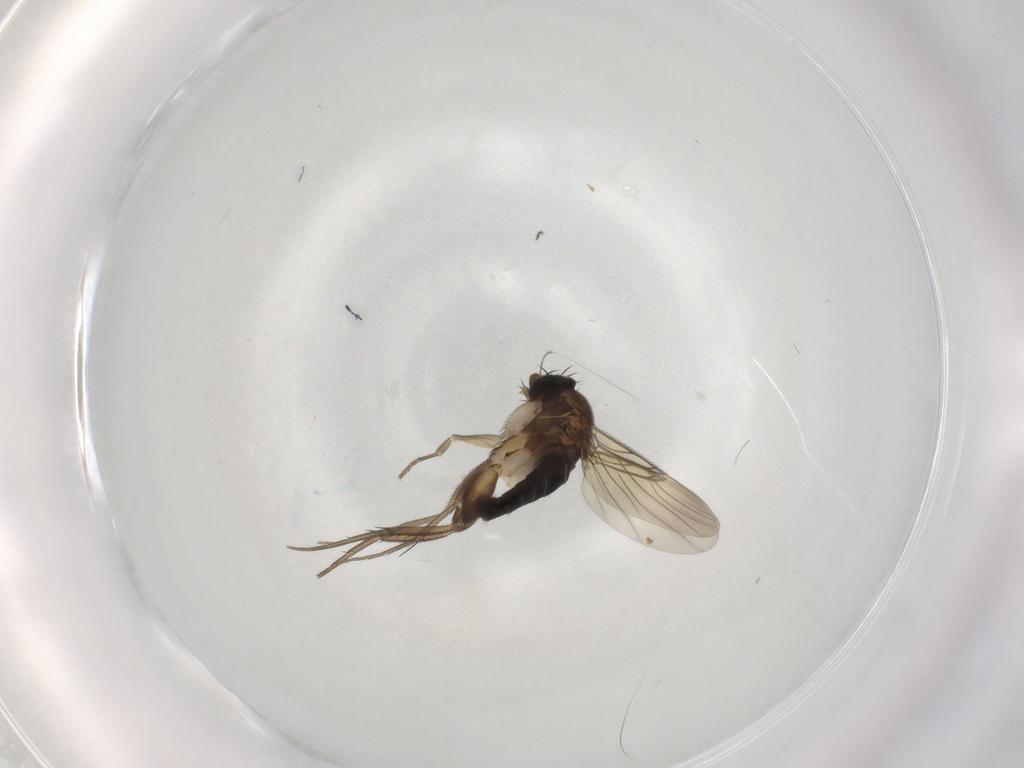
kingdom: Animalia
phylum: Arthropoda
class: Insecta
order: Diptera
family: Phoridae
